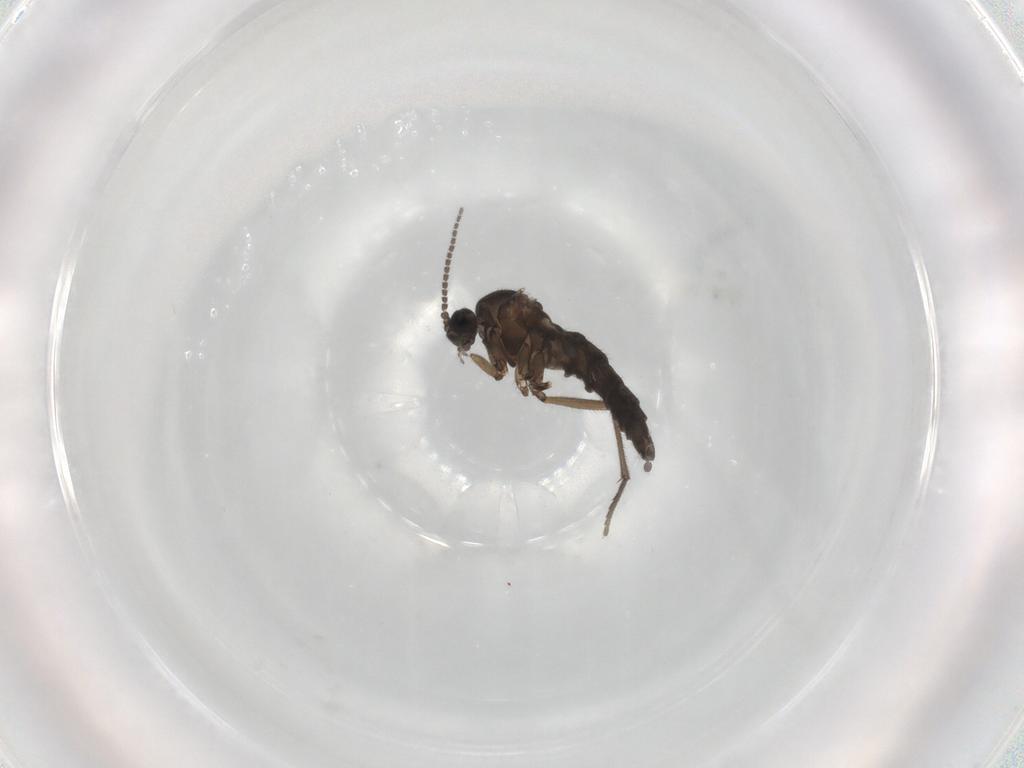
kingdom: Animalia
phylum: Arthropoda
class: Insecta
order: Diptera
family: Sciaridae
